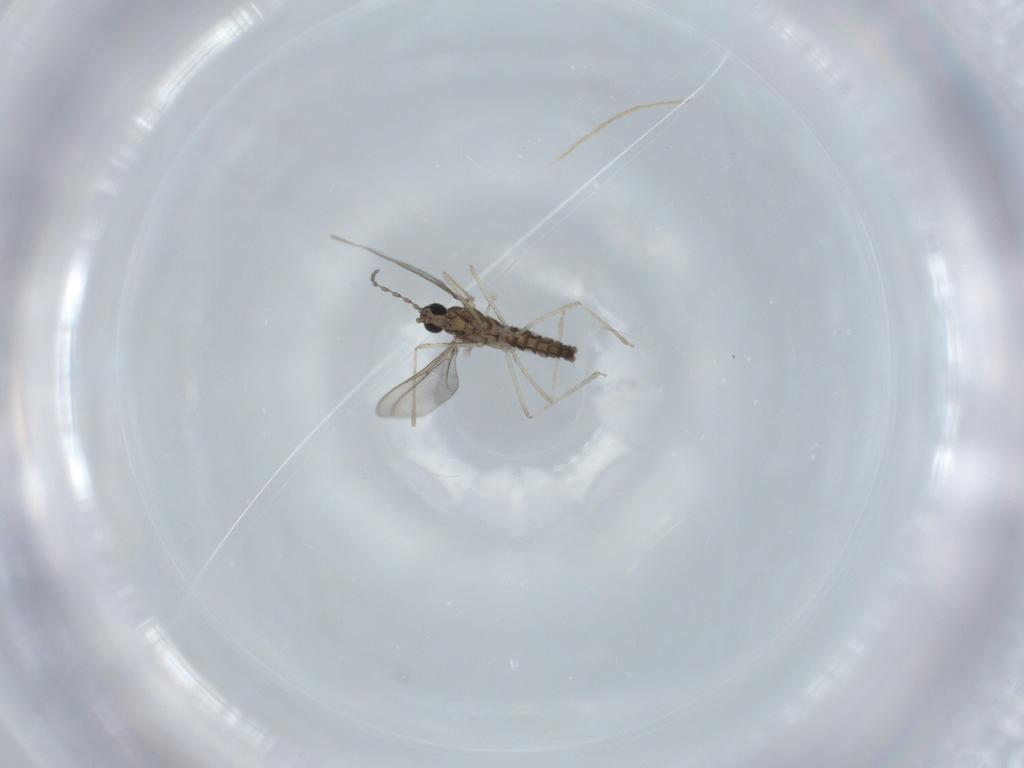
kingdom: Animalia
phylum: Arthropoda
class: Insecta
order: Diptera
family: Cecidomyiidae
